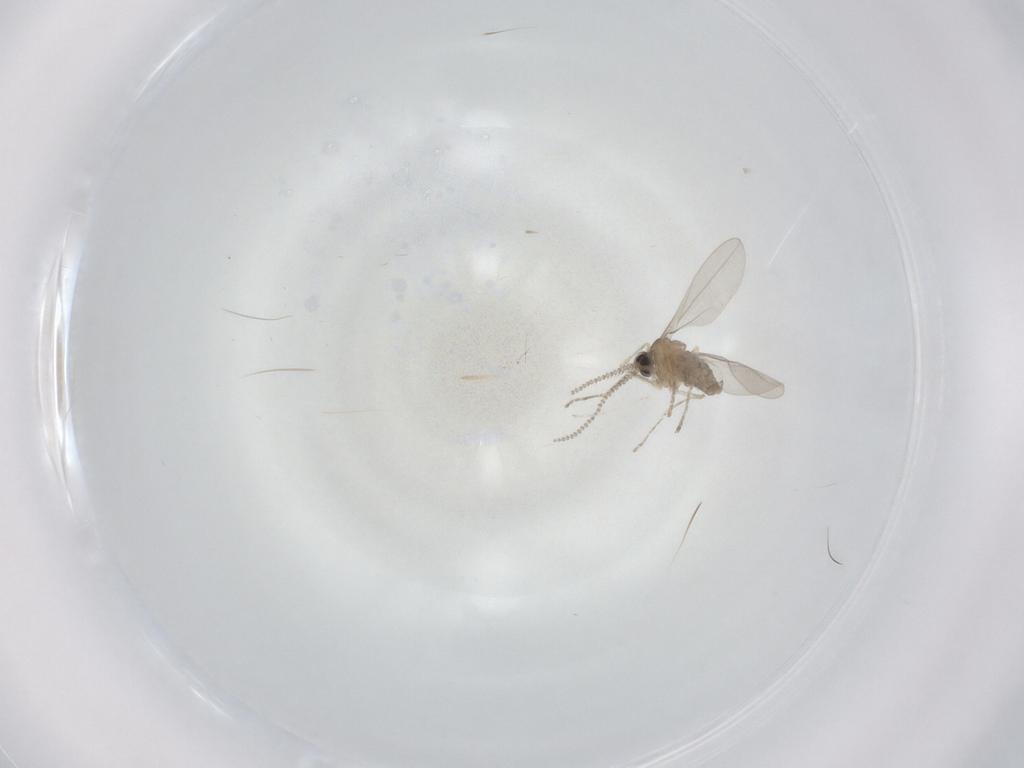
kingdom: Animalia
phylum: Arthropoda
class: Insecta
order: Diptera
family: Cecidomyiidae
